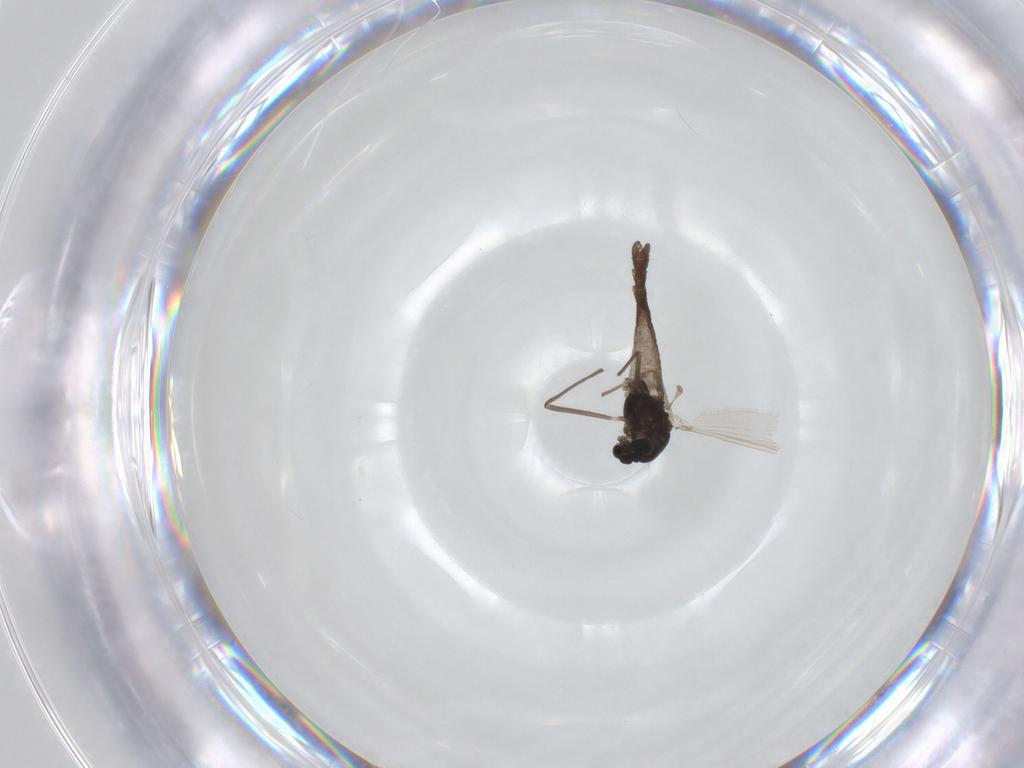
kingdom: Animalia
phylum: Arthropoda
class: Insecta
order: Diptera
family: Chironomidae
